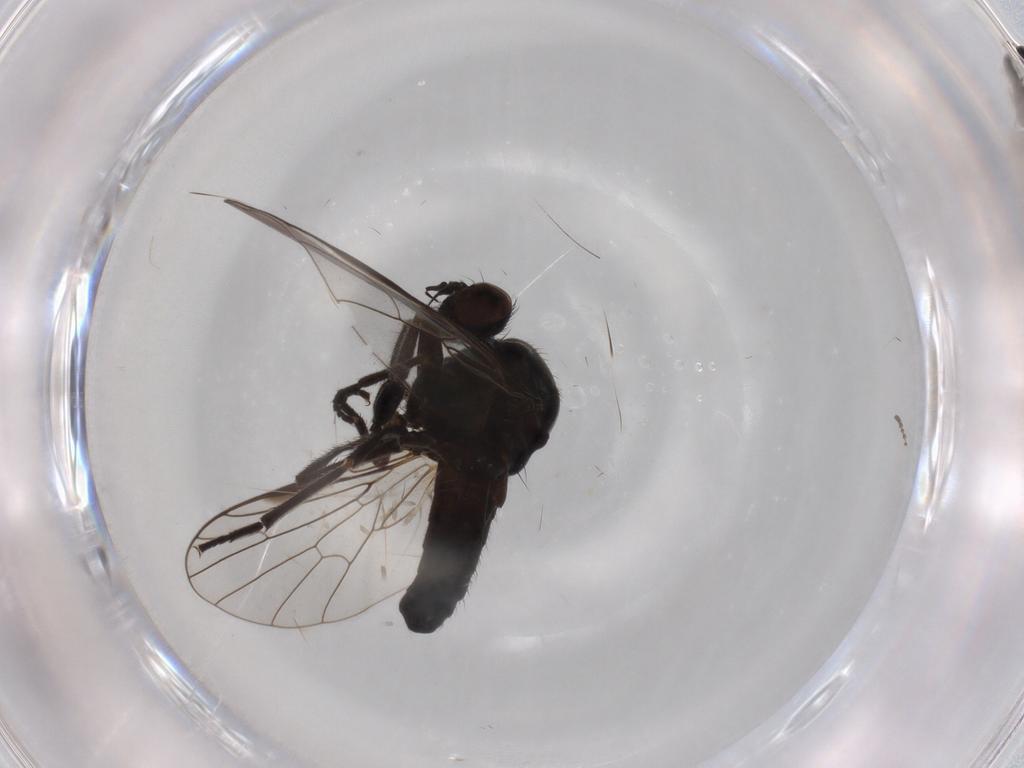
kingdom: Animalia
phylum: Arthropoda
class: Insecta
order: Diptera
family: Empididae
